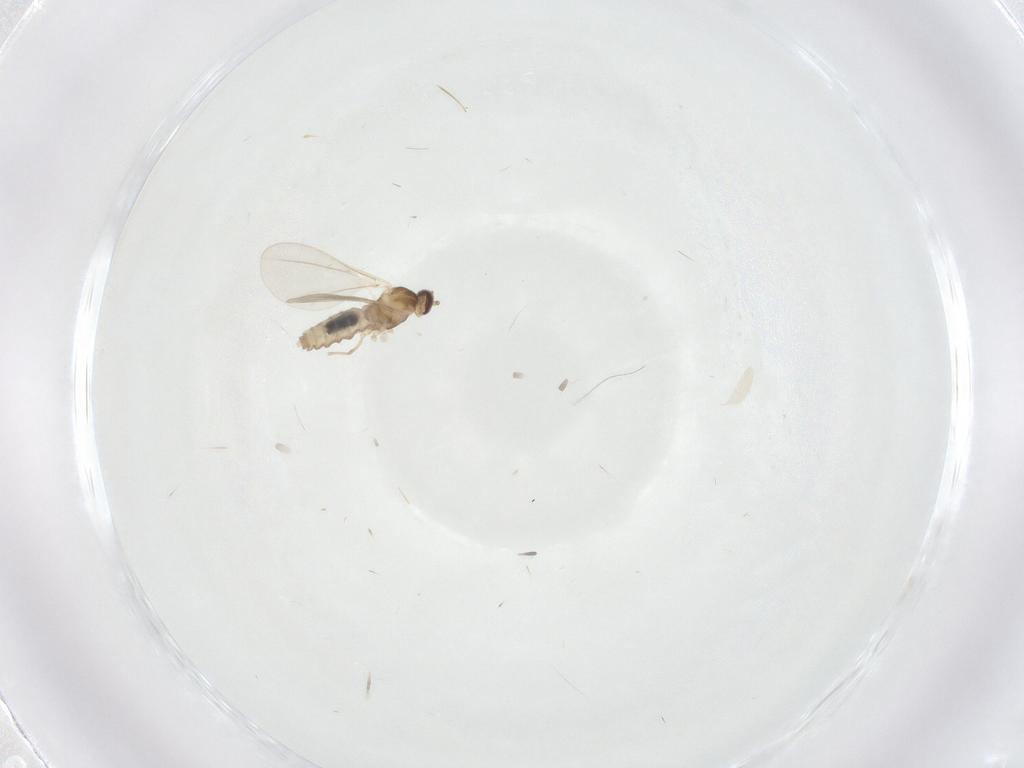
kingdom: Animalia
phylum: Arthropoda
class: Insecta
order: Diptera
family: Cecidomyiidae
